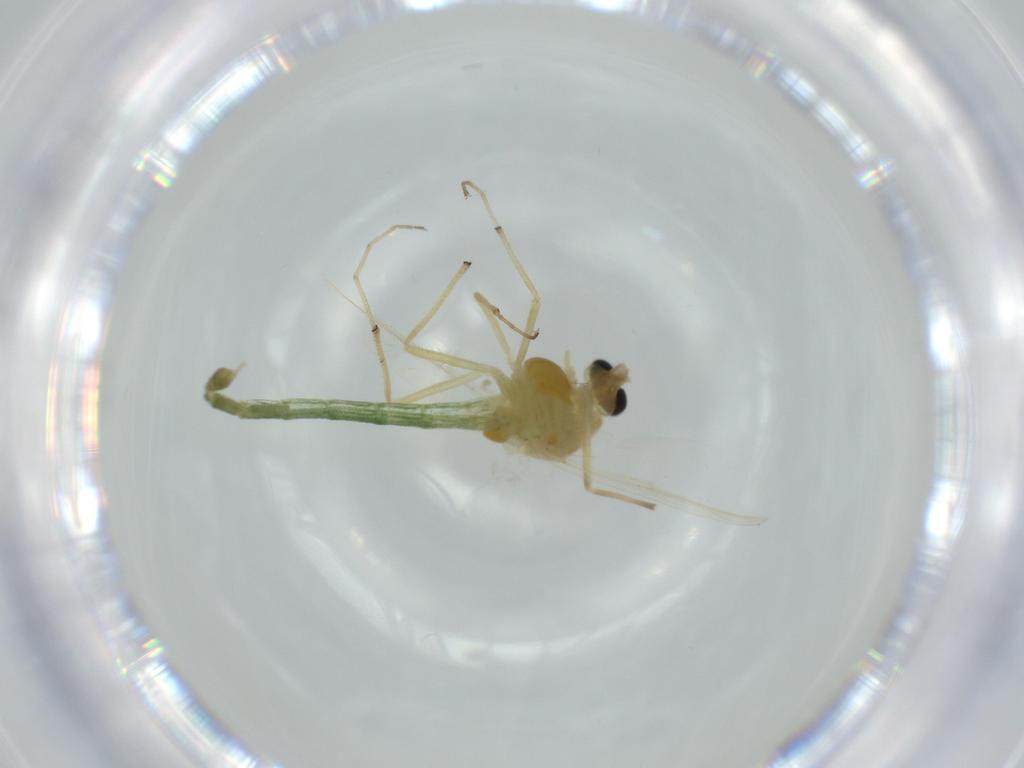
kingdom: Animalia
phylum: Arthropoda
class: Insecta
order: Diptera
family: Chironomidae
